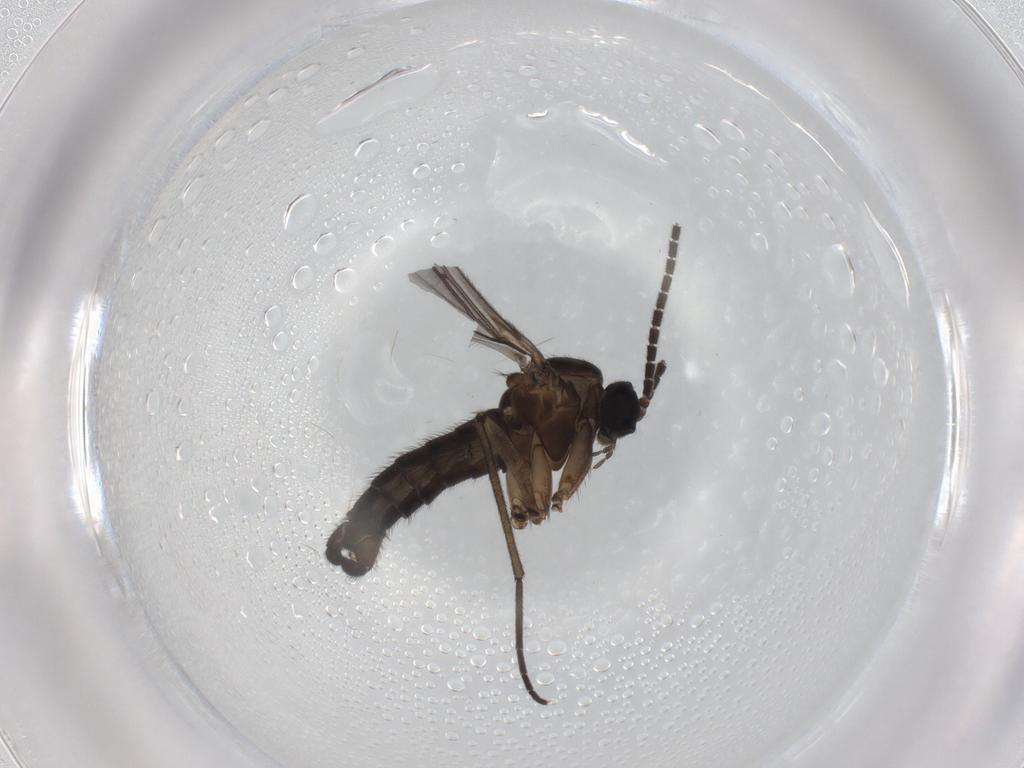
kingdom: Animalia
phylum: Arthropoda
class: Insecta
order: Diptera
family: Sciaridae
